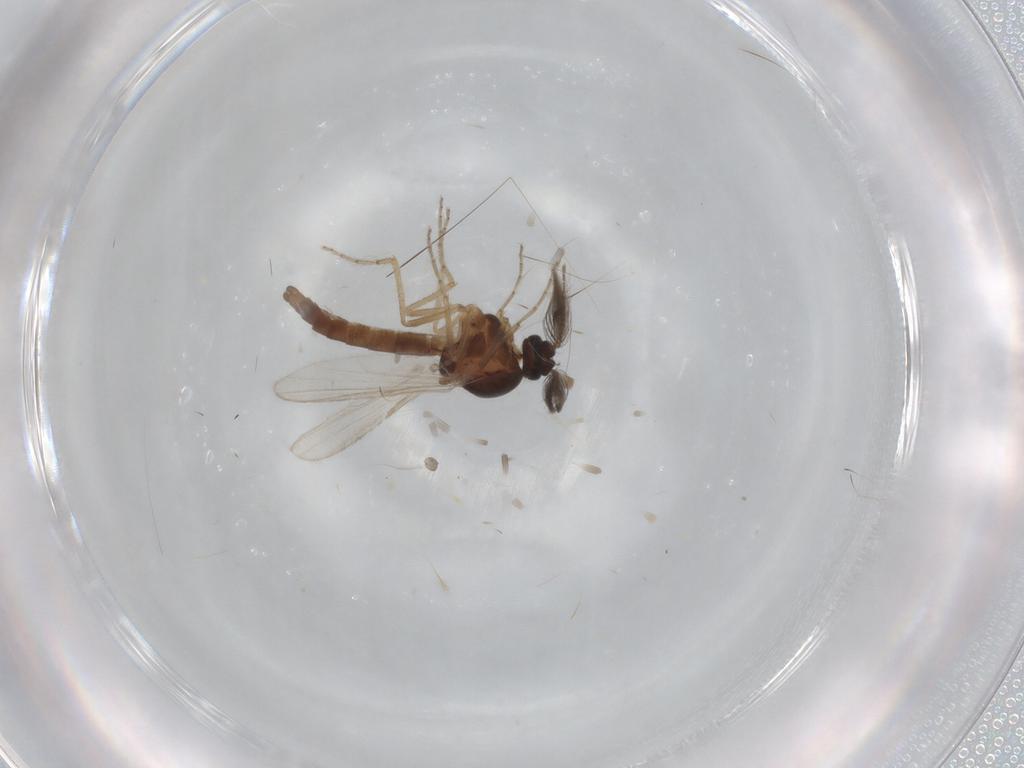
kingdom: Animalia
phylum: Arthropoda
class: Insecta
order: Diptera
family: Ceratopogonidae
